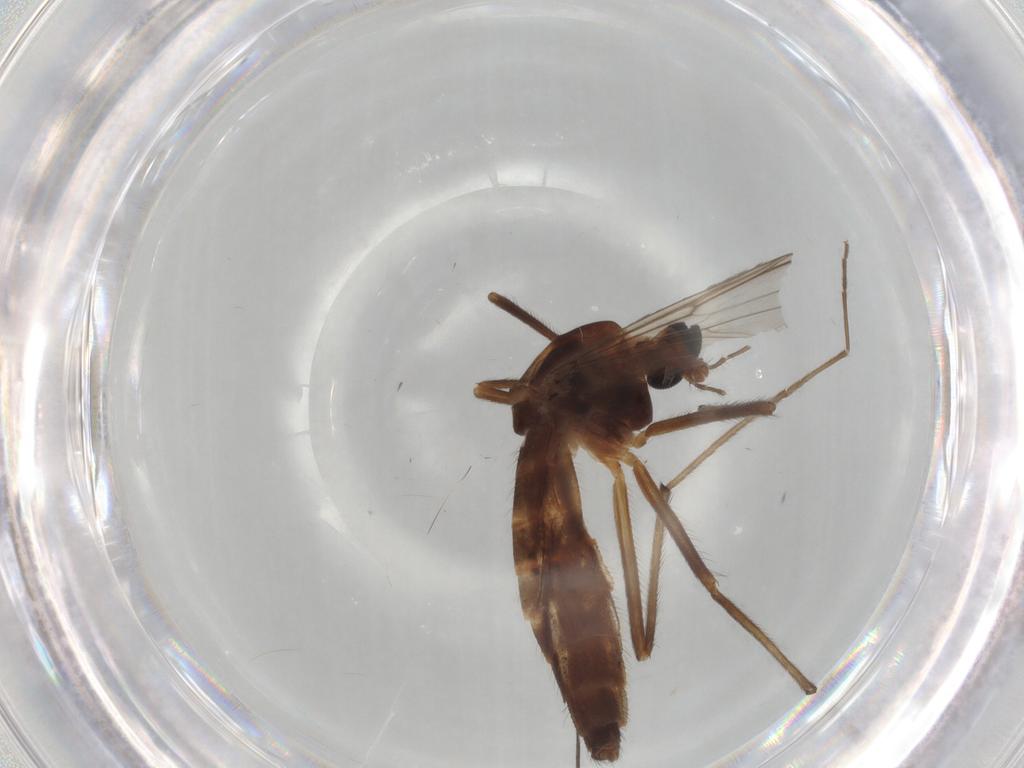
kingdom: Animalia
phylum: Arthropoda
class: Insecta
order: Diptera
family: Chironomidae
